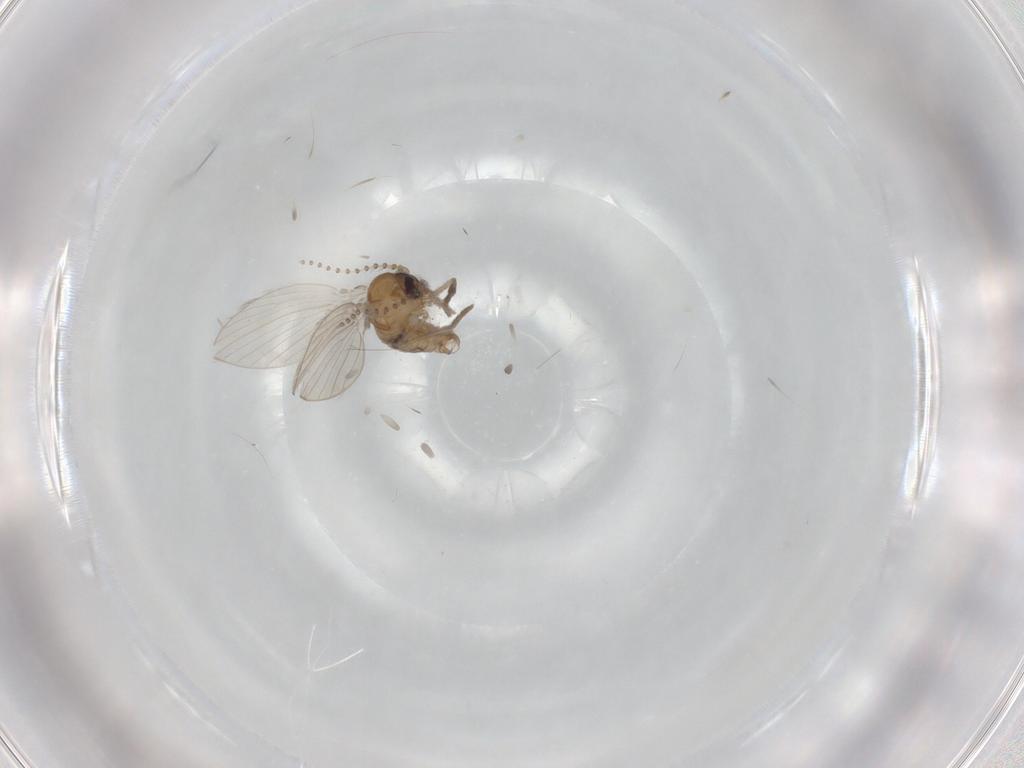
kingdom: Animalia
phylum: Arthropoda
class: Insecta
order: Diptera
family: Psychodidae
